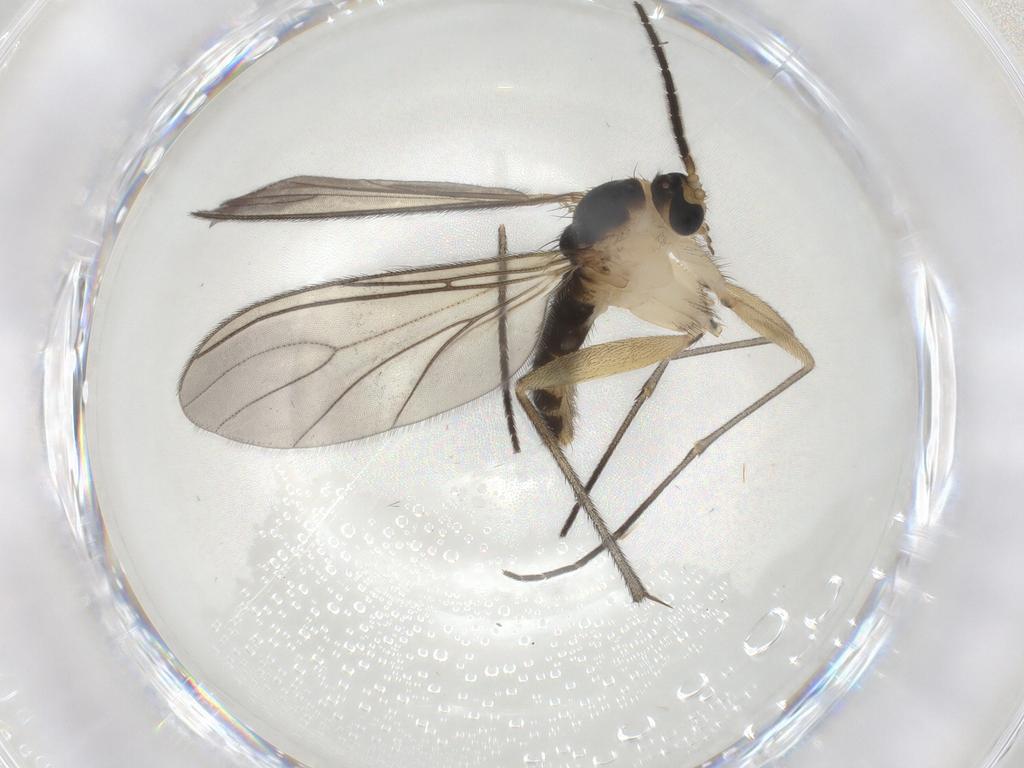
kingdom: Animalia
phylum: Arthropoda
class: Insecta
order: Diptera
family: Sciaridae
